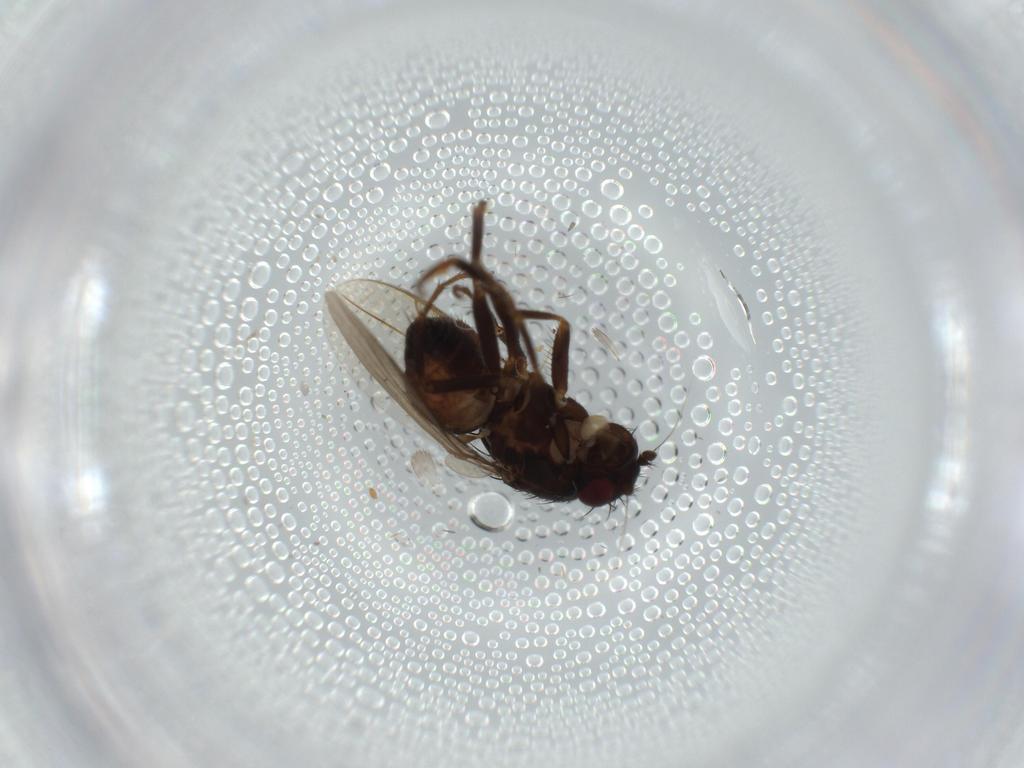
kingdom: Animalia
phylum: Arthropoda
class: Insecta
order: Diptera
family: Sphaeroceridae
